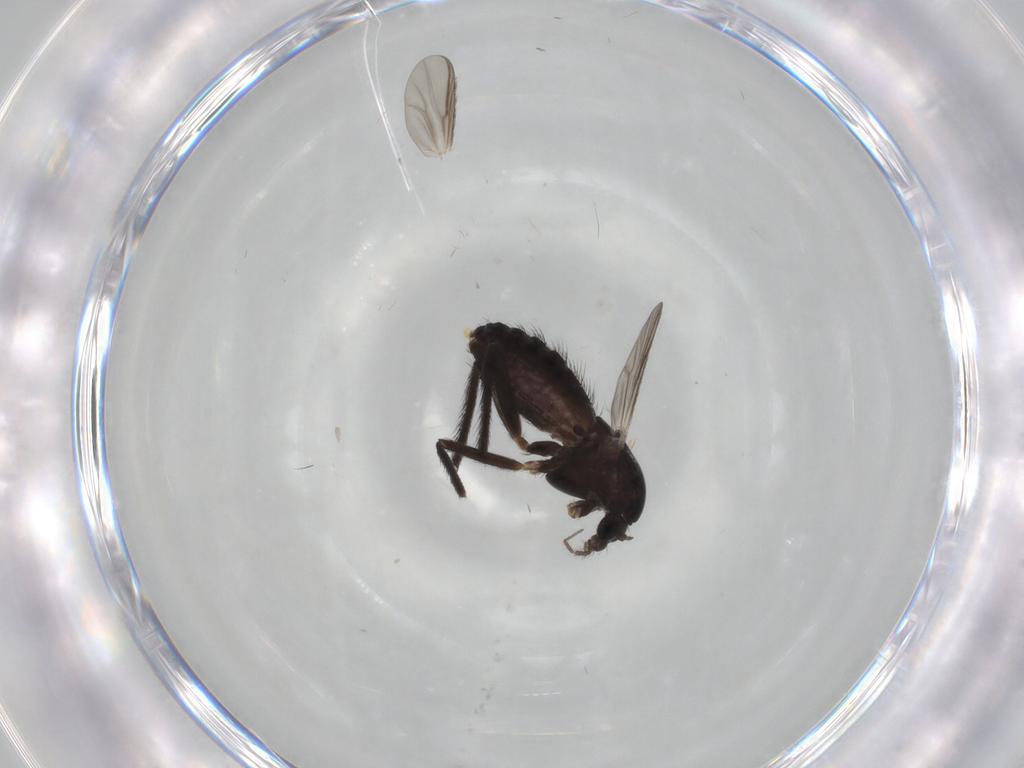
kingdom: Animalia
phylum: Arthropoda
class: Insecta
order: Diptera
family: Chironomidae
